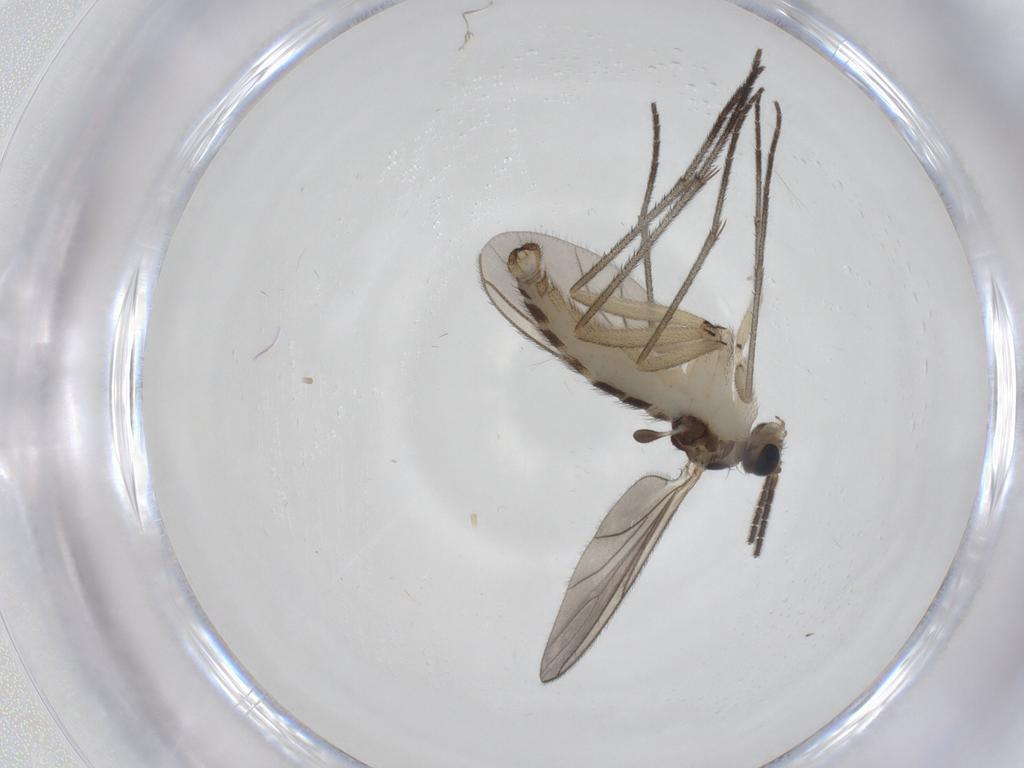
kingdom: Animalia
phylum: Arthropoda
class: Insecta
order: Diptera
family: Sciaridae
